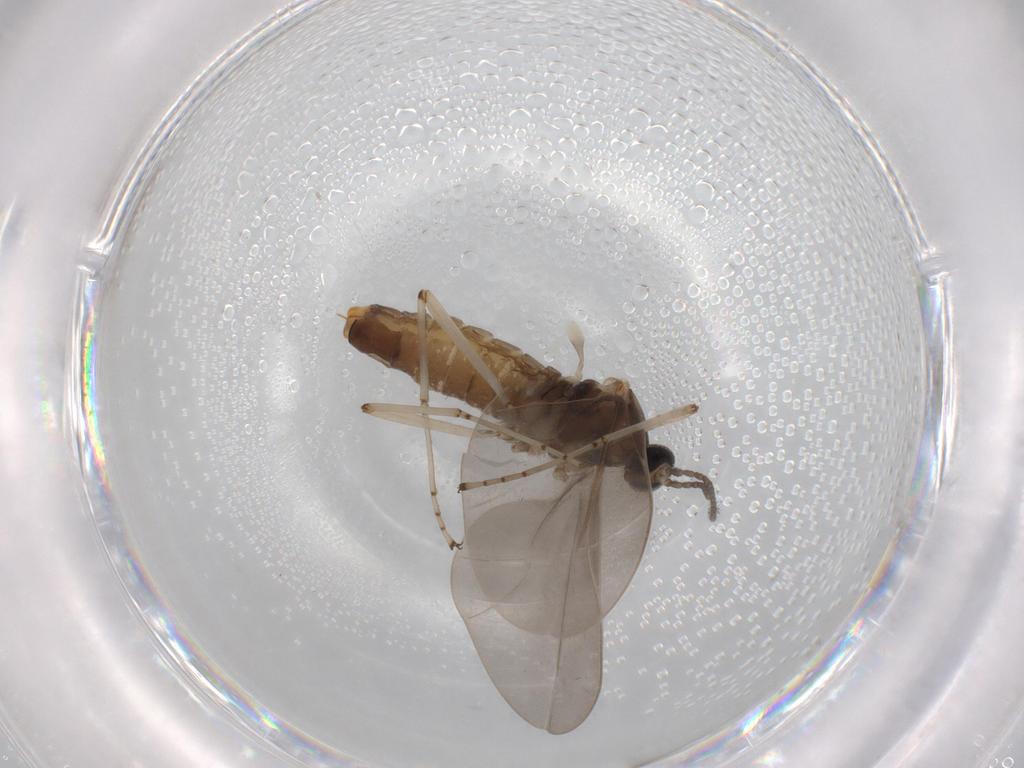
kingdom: Animalia
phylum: Arthropoda
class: Insecta
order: Diptera
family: Cecidomyiidae
